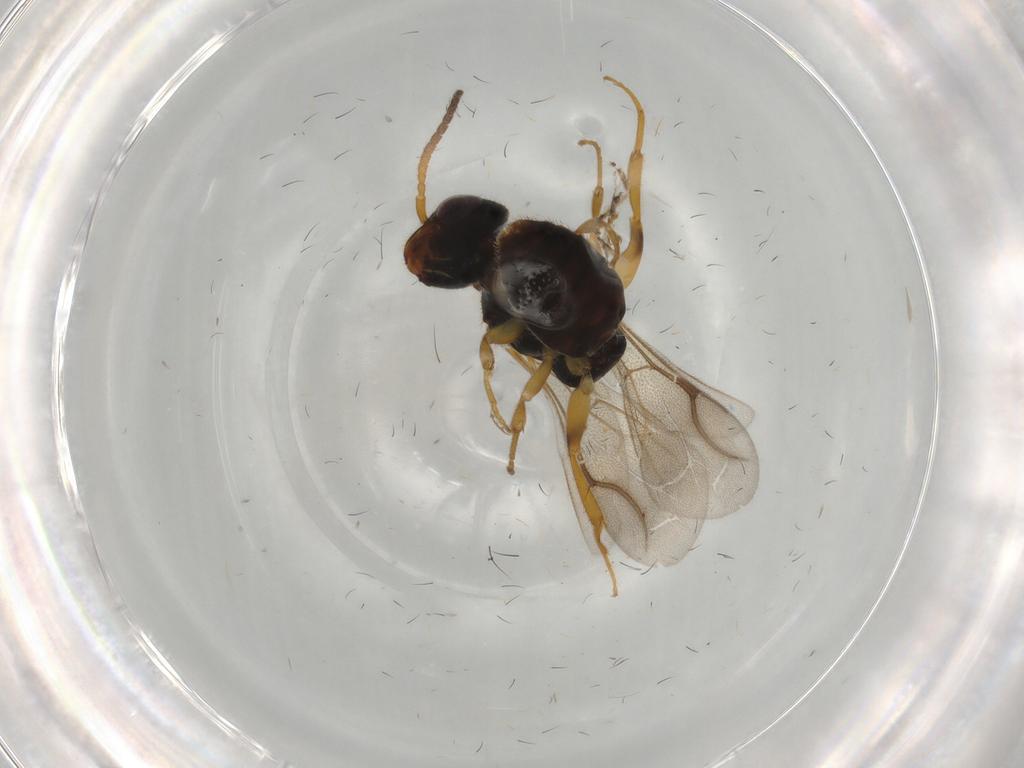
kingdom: Animalia
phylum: Arthropoda
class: Insecta
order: Hymenoptera
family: Bethylidae
